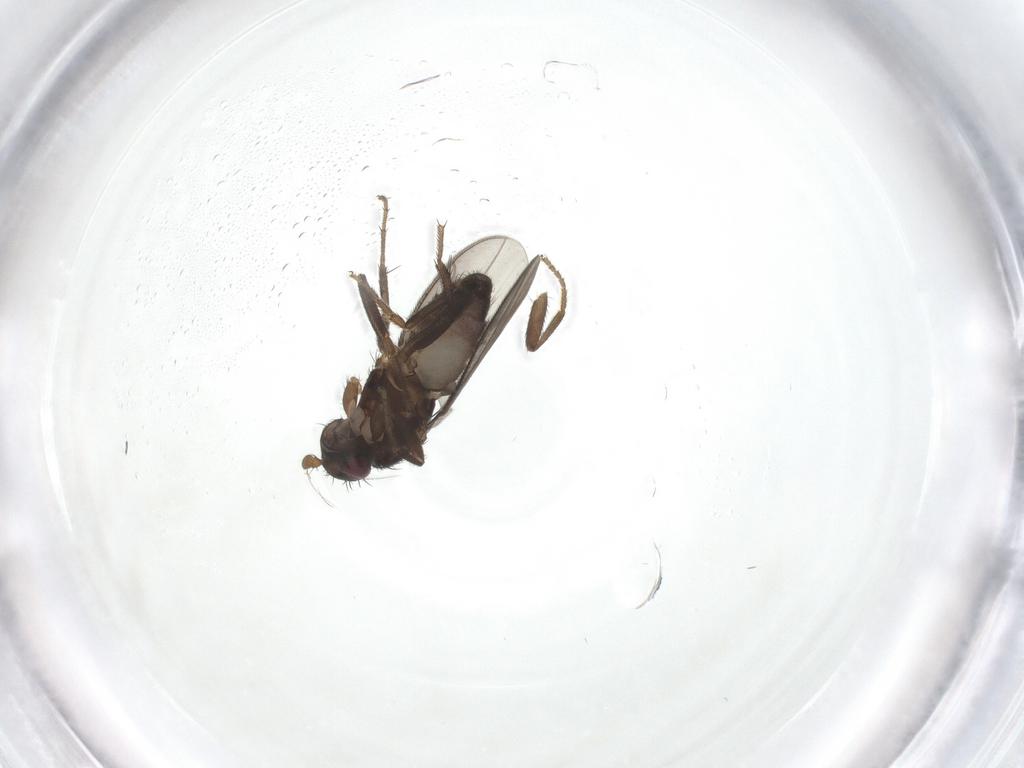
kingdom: Animalia
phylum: Arthropoda
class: Insecta
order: Diptera
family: Sciaridae
